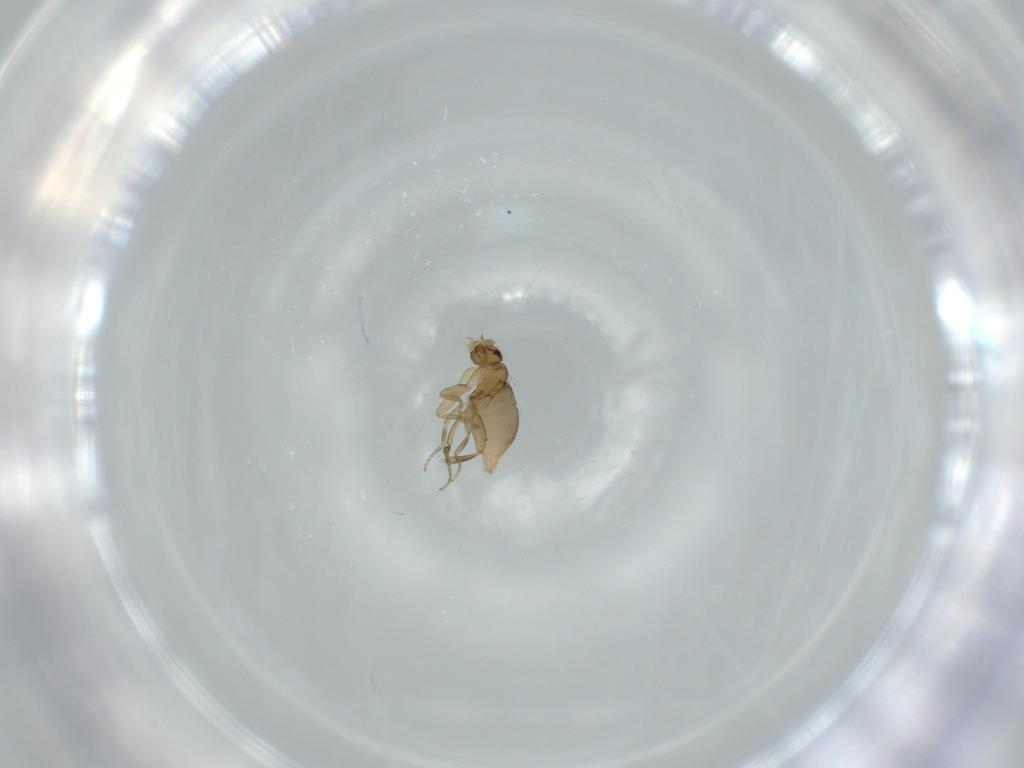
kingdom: Animalia
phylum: Arthropoda
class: Insecta
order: Diptera
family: Phoridae
